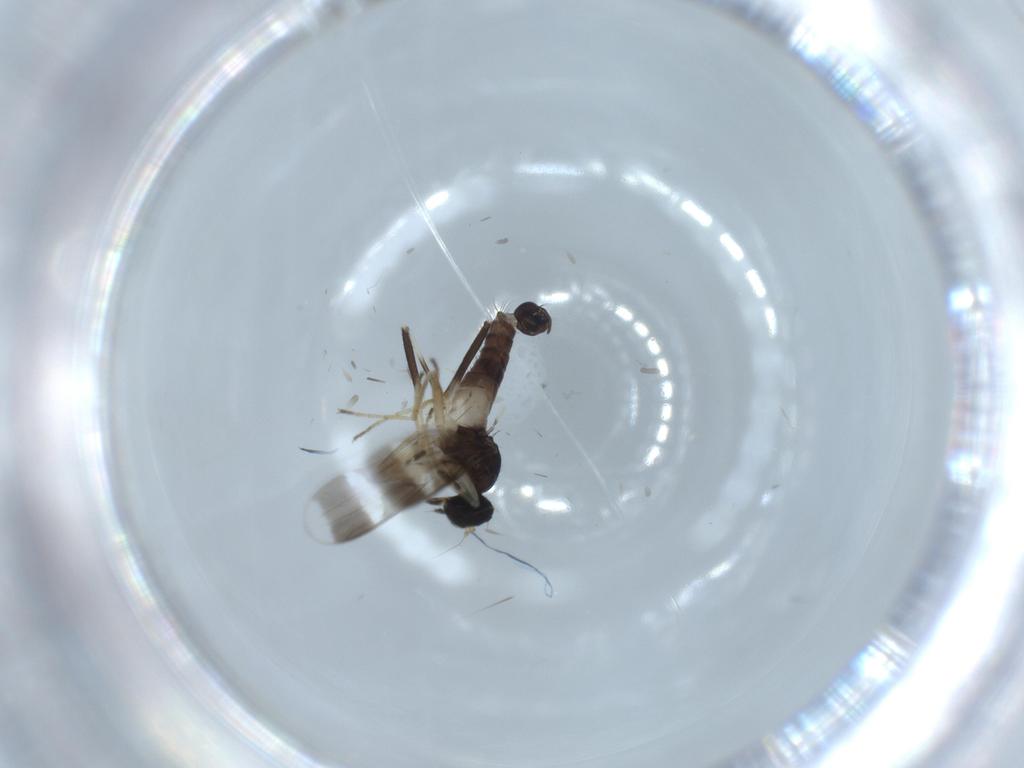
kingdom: Animalia
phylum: Arthropoda
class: Insecta
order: Diptera
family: Hybotidae
